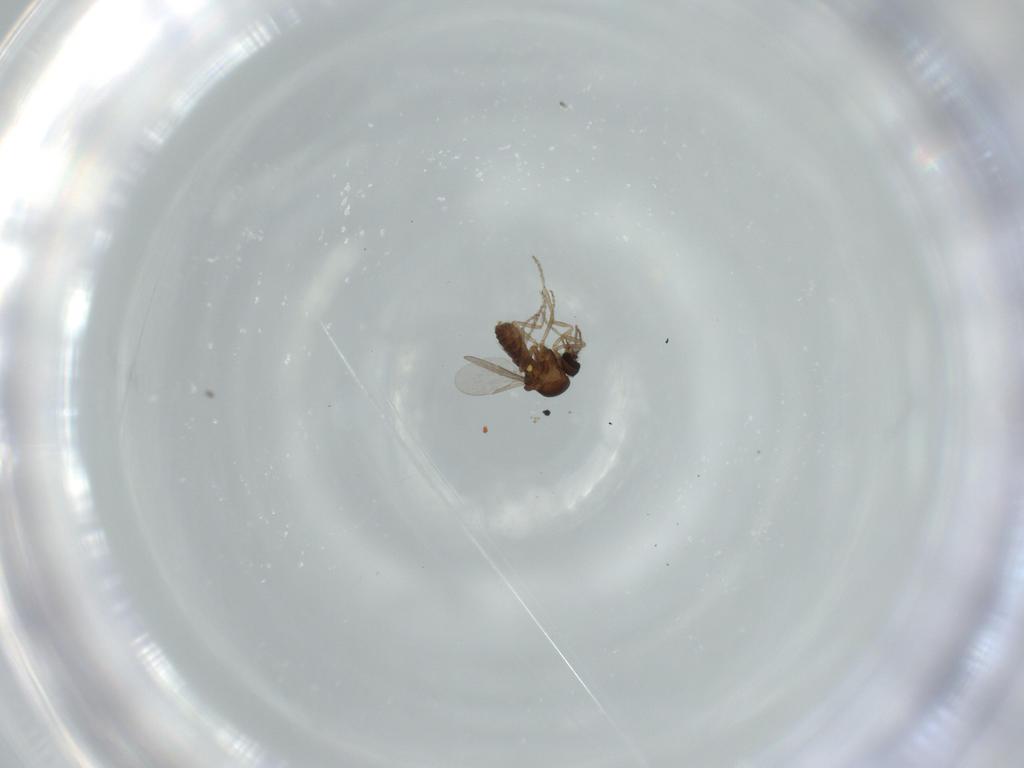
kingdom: Animalia
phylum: Arthropoda
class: Insecta
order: Diptera
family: Ceratopogonidae
